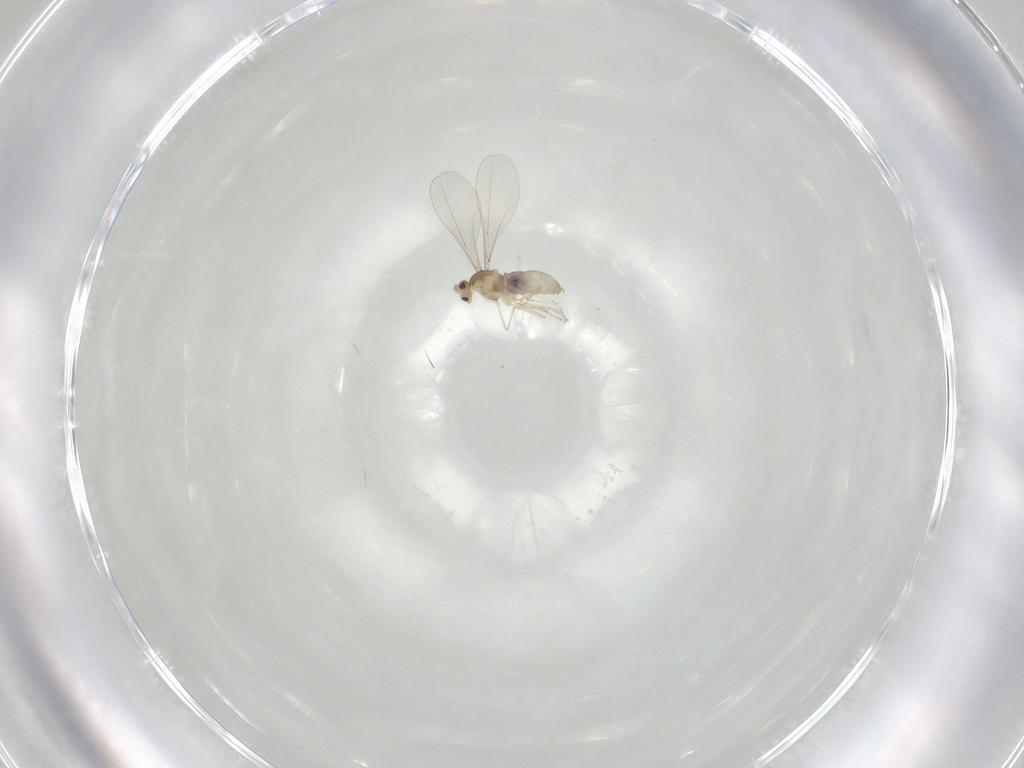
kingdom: Animalia
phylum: Arthropoda
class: Insecta
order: Diptera
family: Cecidomyiidae
